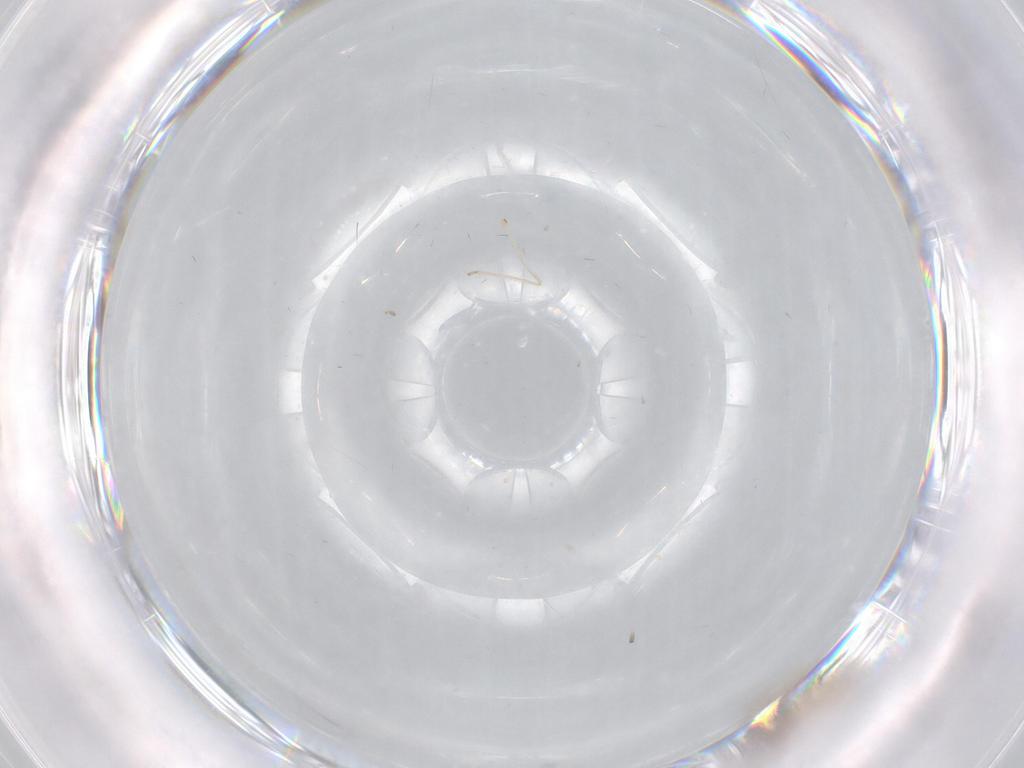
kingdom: Animalia
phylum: Arthropoda
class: Insecta
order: Diptera
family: Cecidomyiidae
